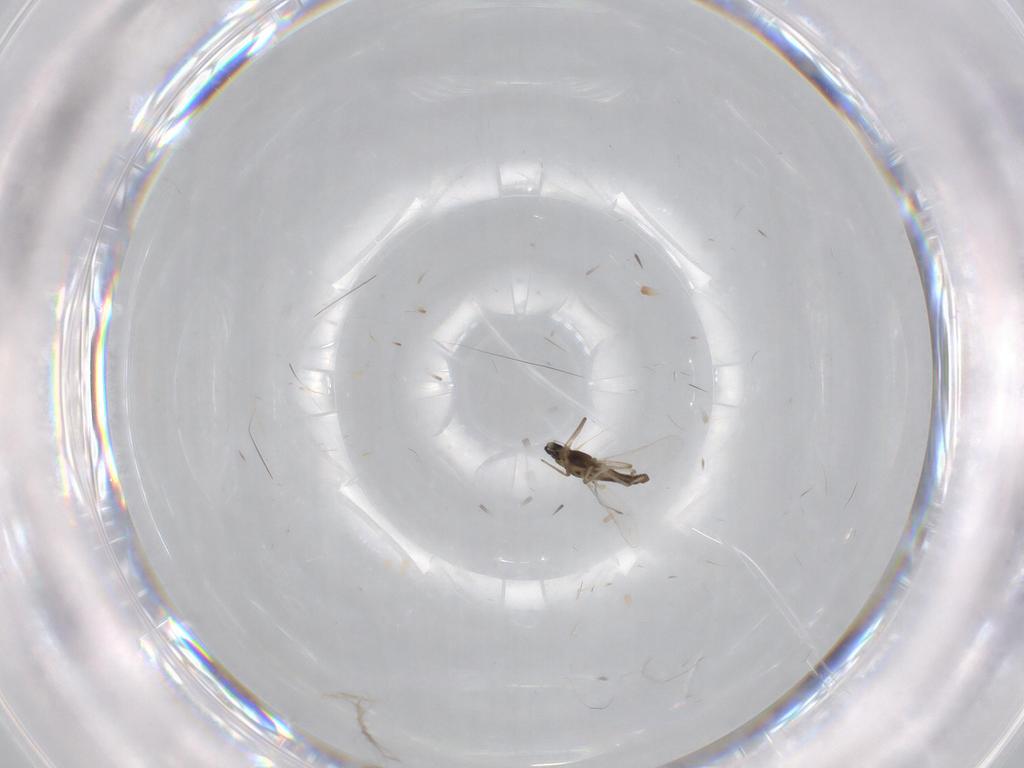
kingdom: Animalia
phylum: Arthropoda
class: Insecta
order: Diptera
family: Chironomidae
